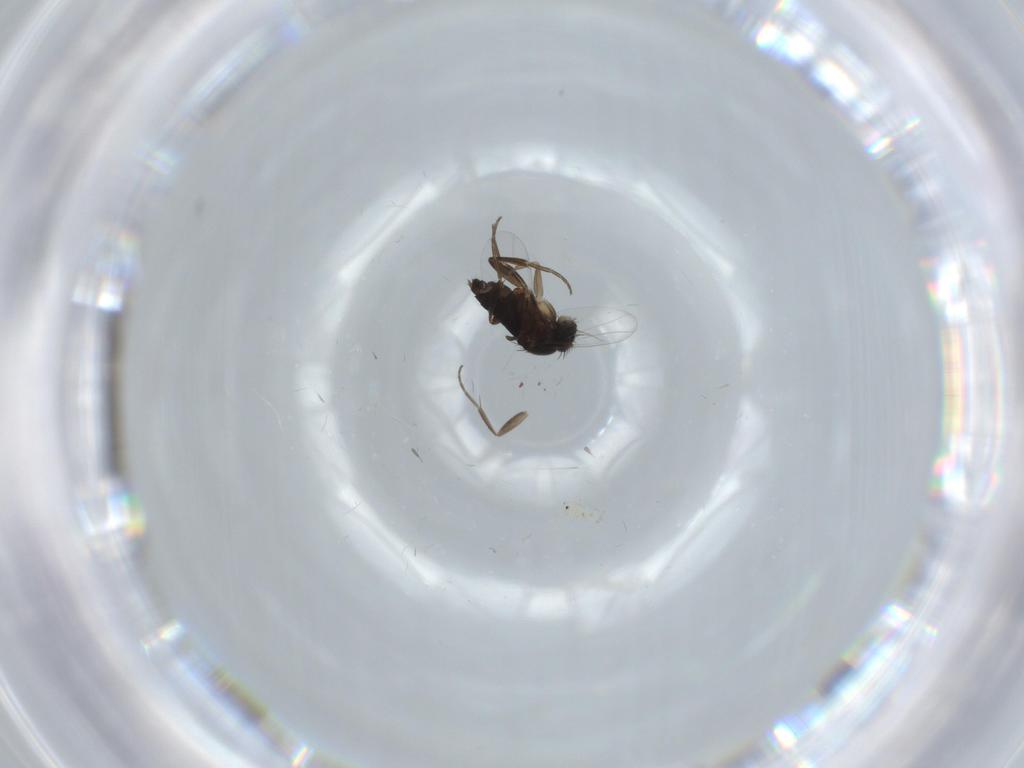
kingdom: Animalia
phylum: Arthropoda
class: Insecta
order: Diptera
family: Phoridae
